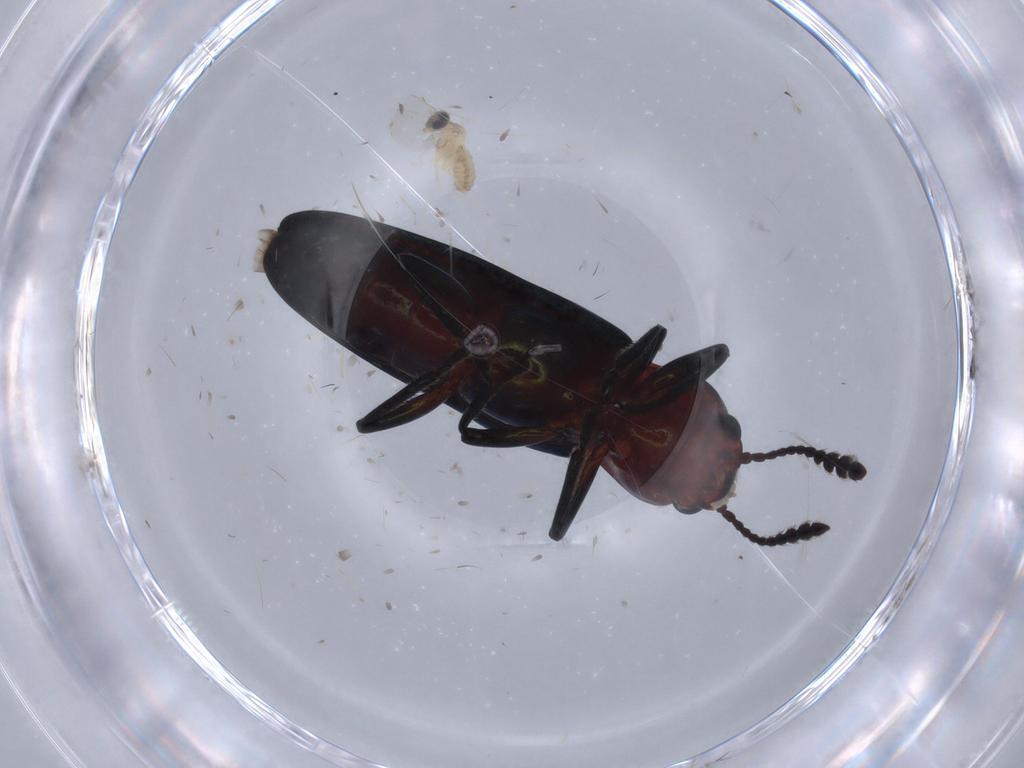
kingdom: Animalia
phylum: Arthropoda
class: Insecta
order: Coleoptera
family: Erotylidae
